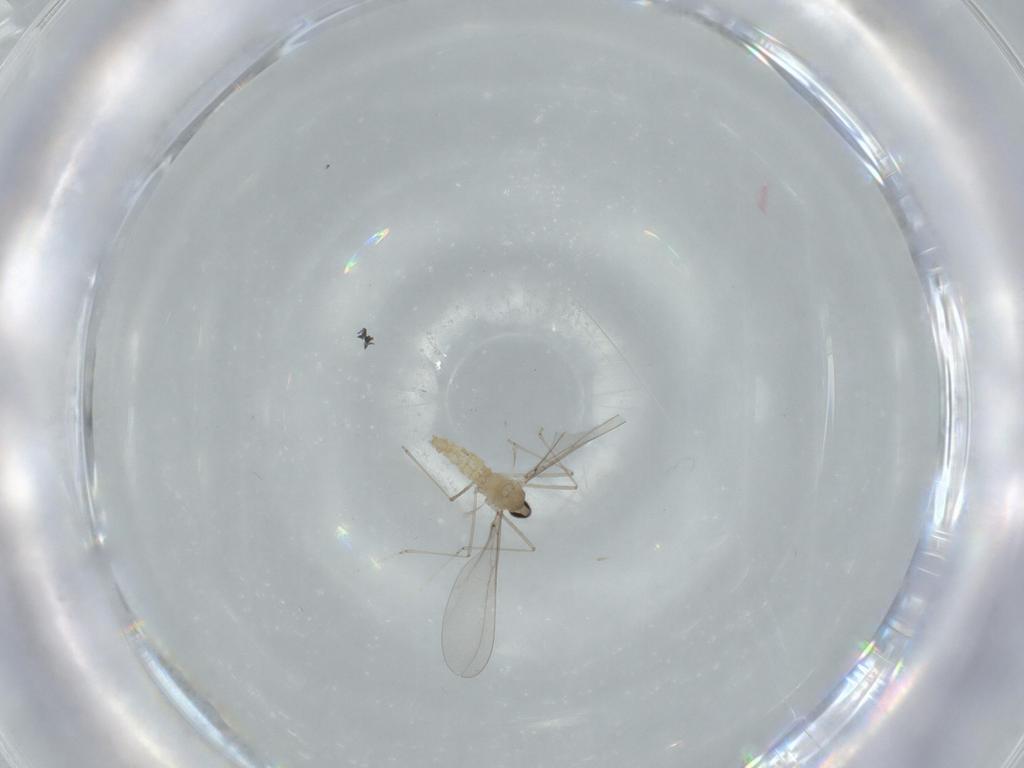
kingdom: Animalia
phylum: Arthropoda
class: Insecta
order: Diptera
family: Cecidomyiidae
